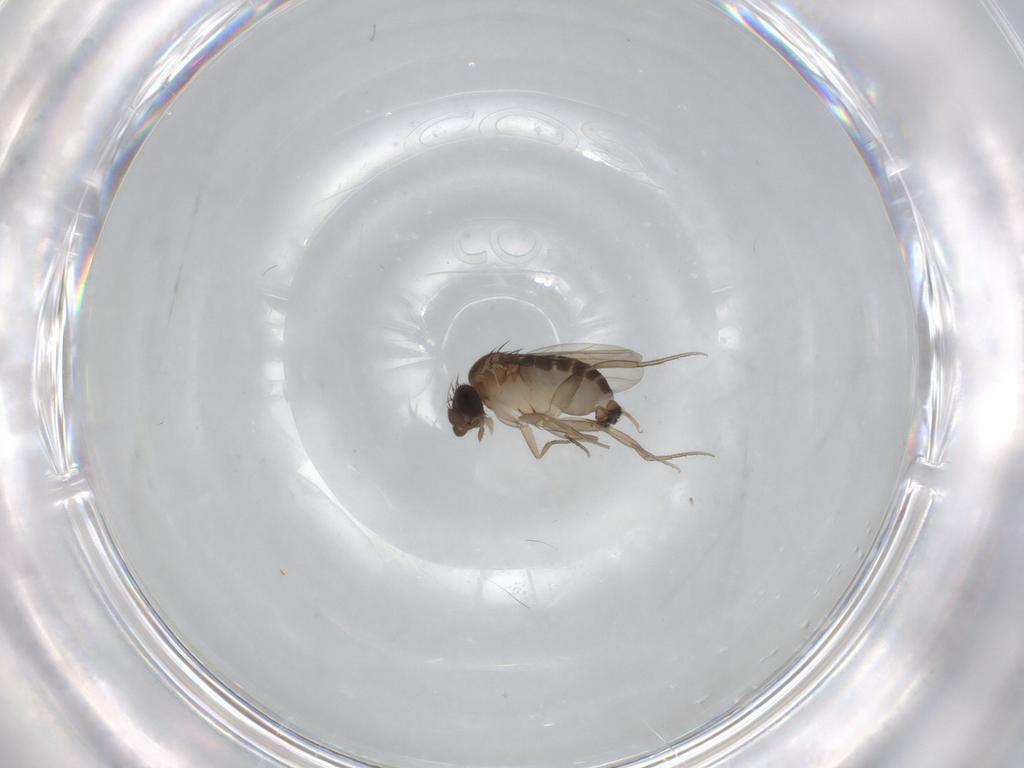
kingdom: Animalia
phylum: Arthropoda
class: Insecta
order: Diptera
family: Phoridae
